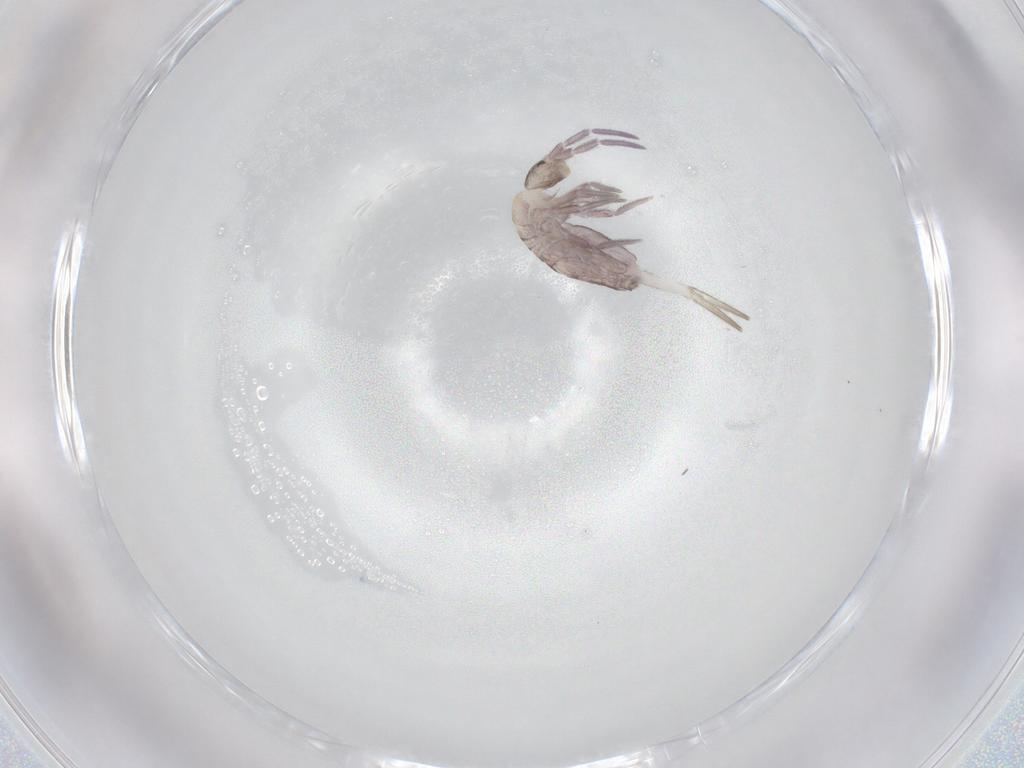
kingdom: Animalia
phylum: Arthropoda
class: Collembola
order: Entomobryomorpha
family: Entomobryidae
